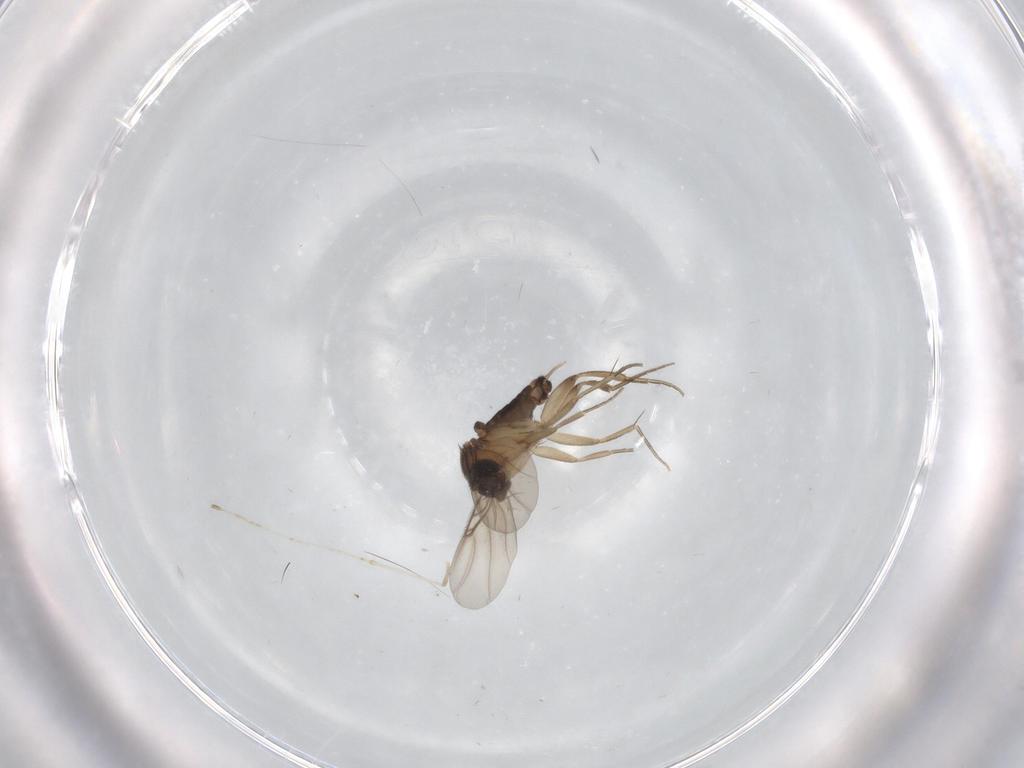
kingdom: Animalia
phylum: Arthropoda
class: Insecta
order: Diptera
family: Cecidomyiidae
